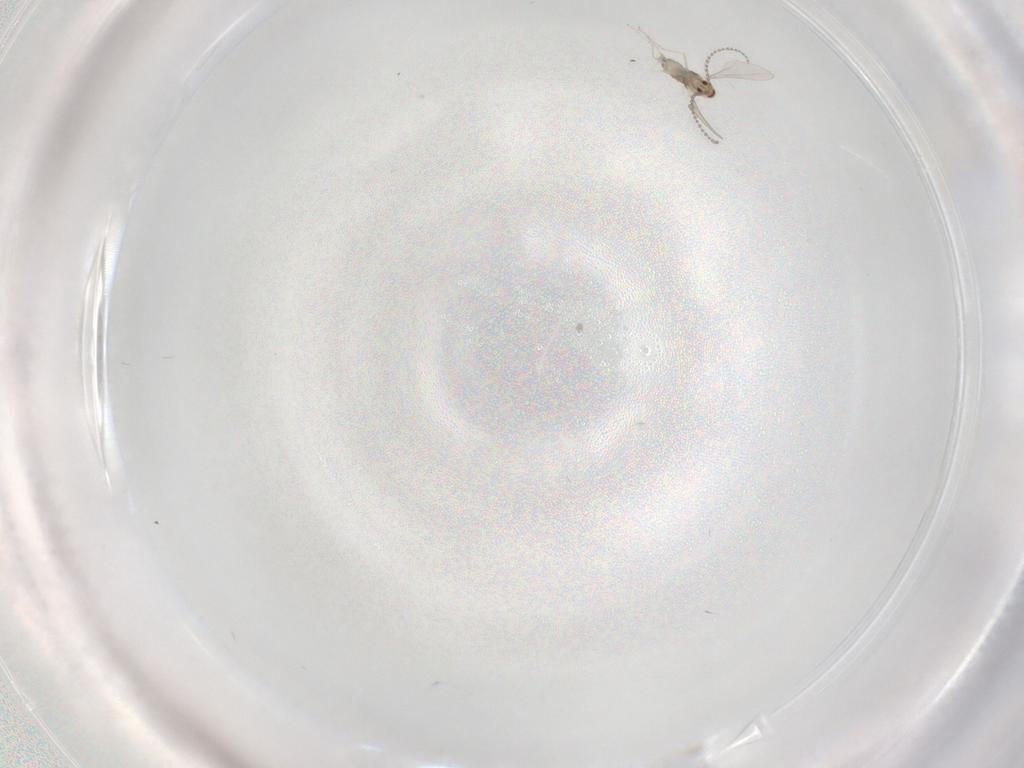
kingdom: Animalia
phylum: Arthropoda
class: Insecta
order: Diptera
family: Cecidomyiidae
